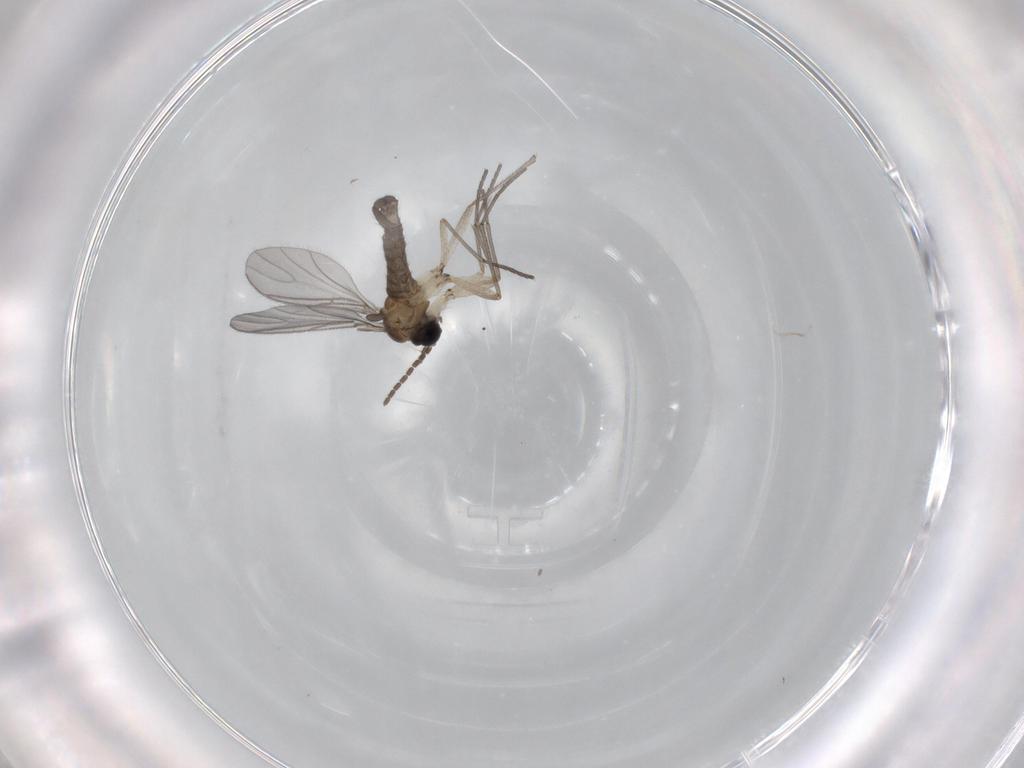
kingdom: Animalia
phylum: Arthropoda
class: Insecta
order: Diptera
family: Sciaridae
